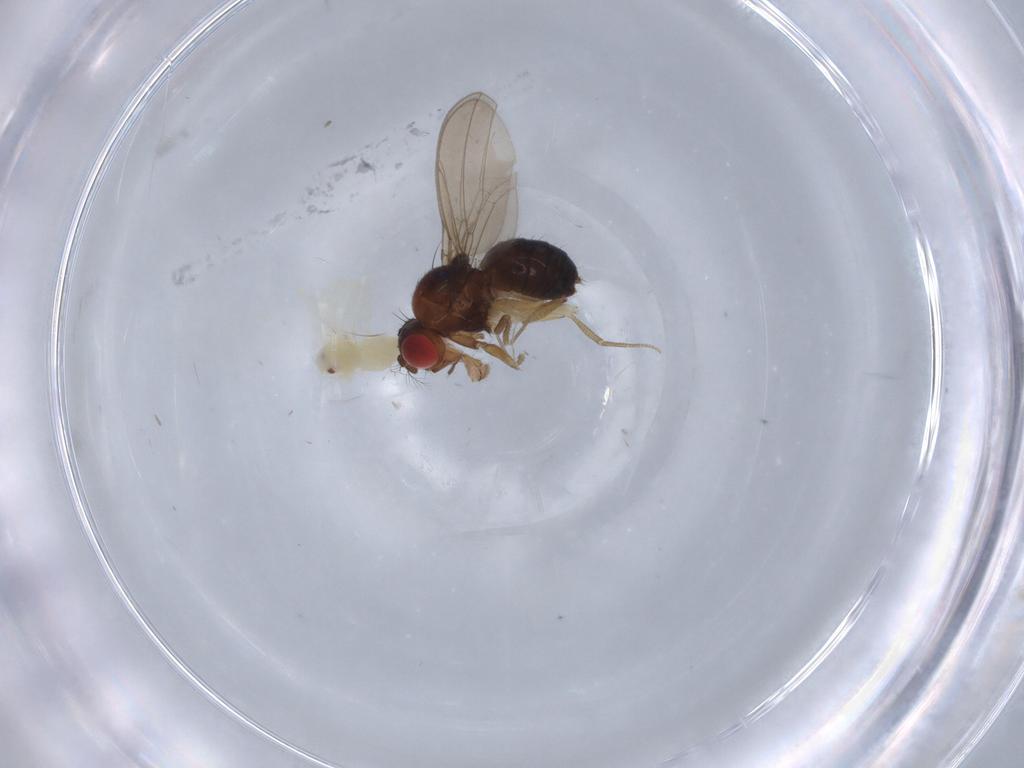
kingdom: Animalia
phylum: Arthropoda
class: Insecta
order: Diptera
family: Drosophilidae
